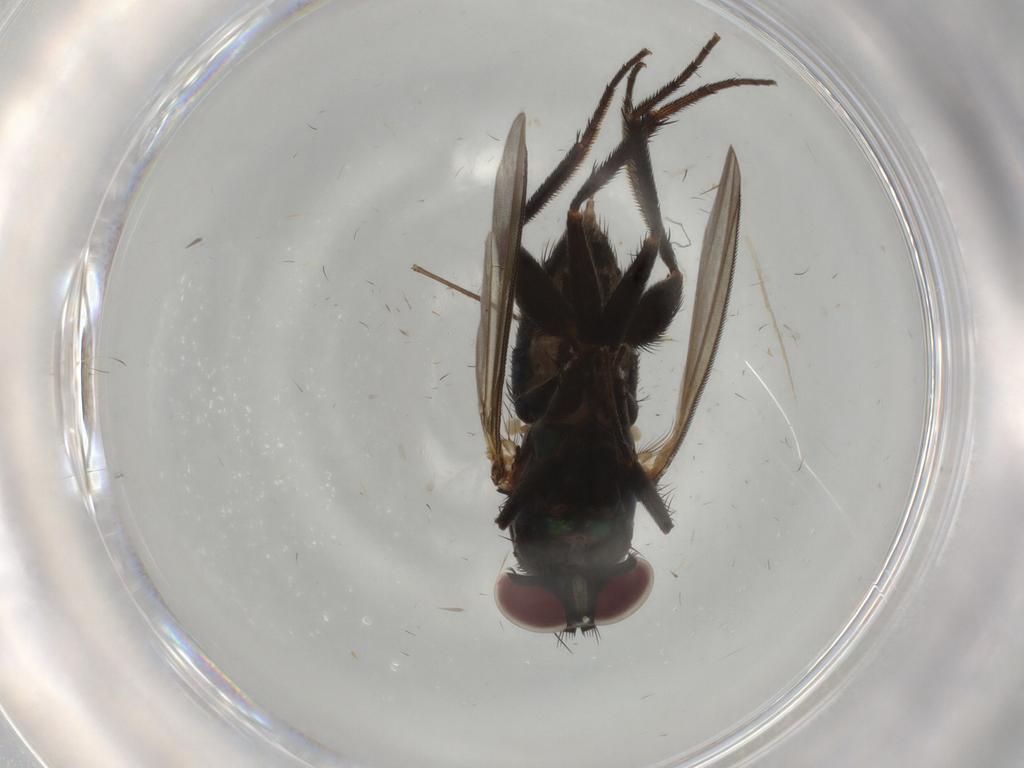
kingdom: Animalia
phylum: Arthropoda
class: Insecta
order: Diptera
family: Dolichopodidae
